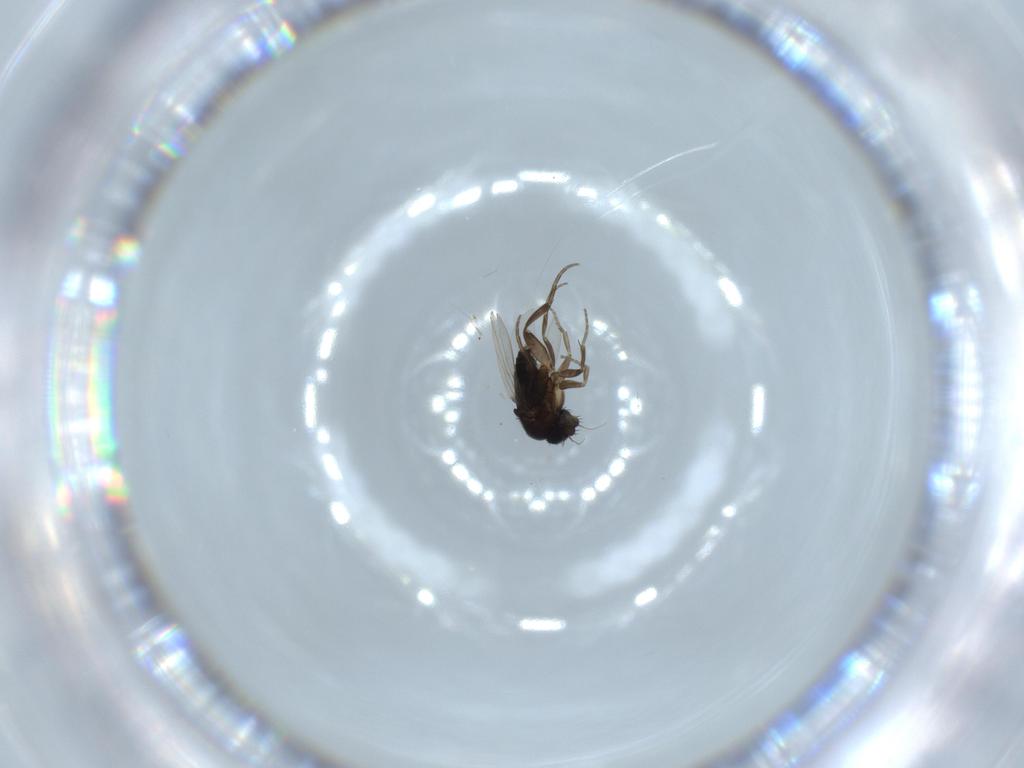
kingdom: Animalia
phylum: Arthropoda
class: Insecta
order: Diptera
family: Phoridae
